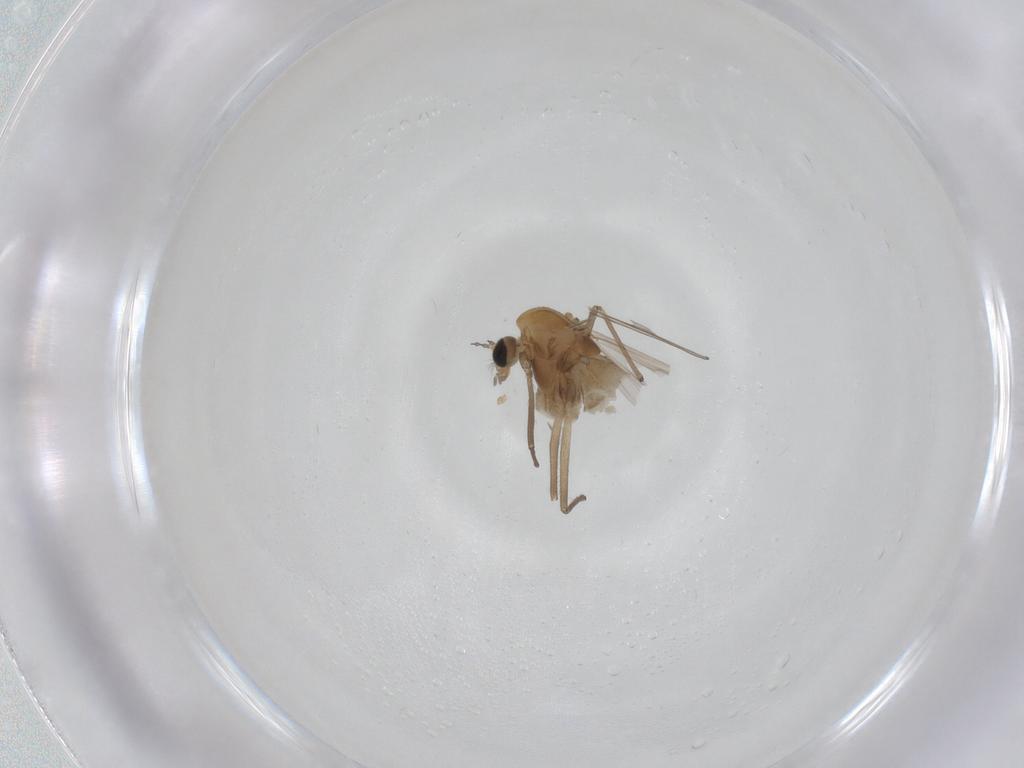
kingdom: Animalia
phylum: Arthropoda
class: Insecta
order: Diptera
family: Chironomidae
